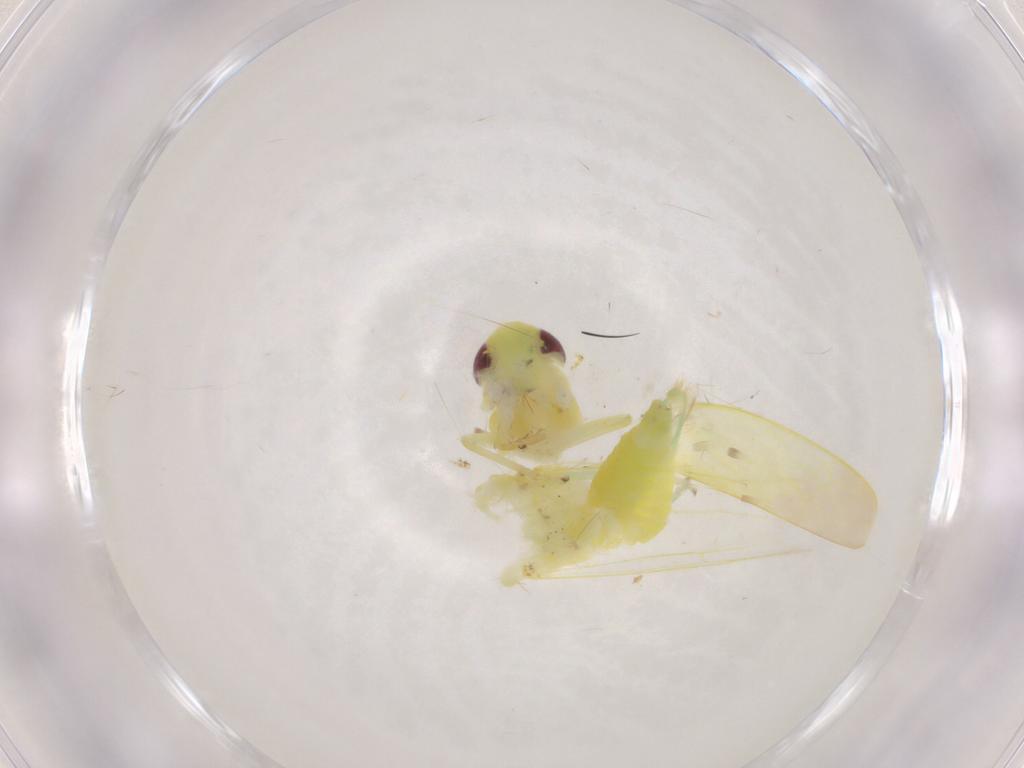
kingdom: Animalia
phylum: Arthropoda
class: Insecta
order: Hemiptera
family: Cicadellidae
